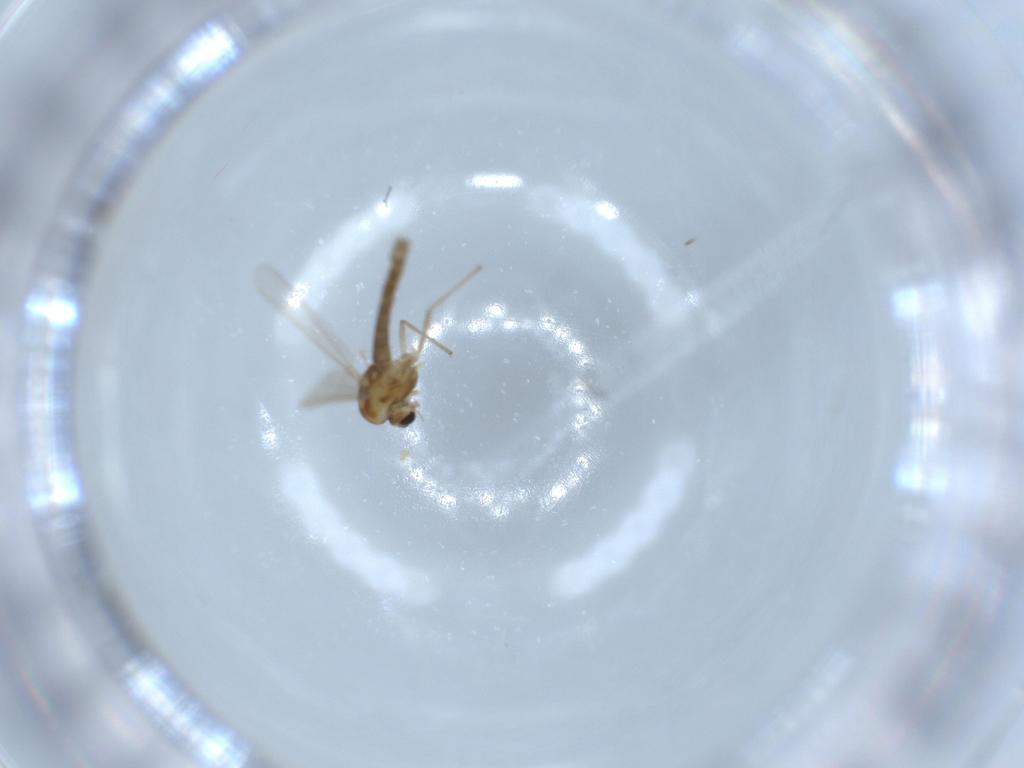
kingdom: Animalia
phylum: Arthropoda
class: Insecta
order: Diptera
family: Chironomidae
